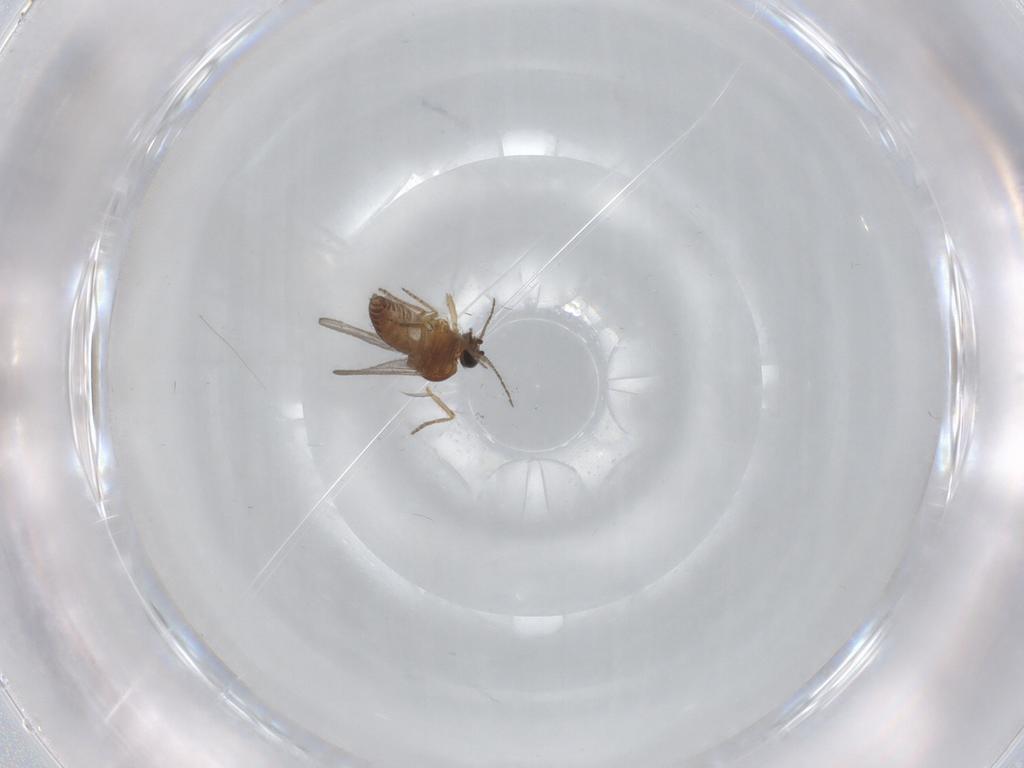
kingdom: Animalia
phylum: Arthropoda
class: Insecta
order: Diptera
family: Ceratopogonidae
